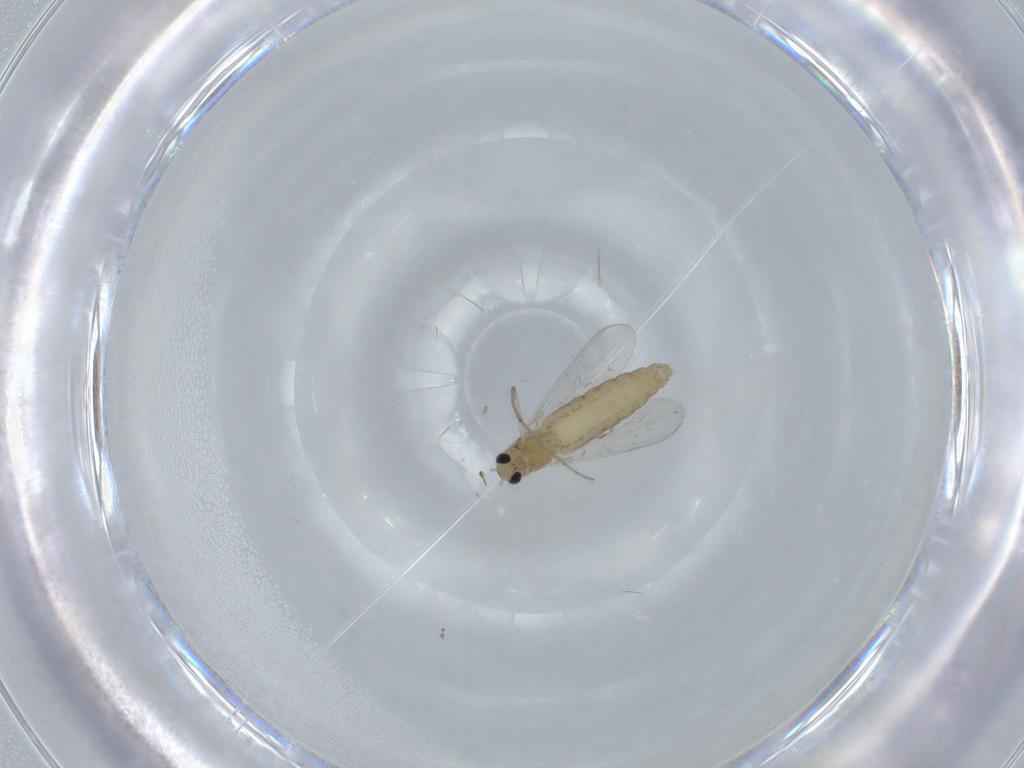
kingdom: Animalia
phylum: Arthropoda
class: Insecta
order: Diptera
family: Chironomidae
